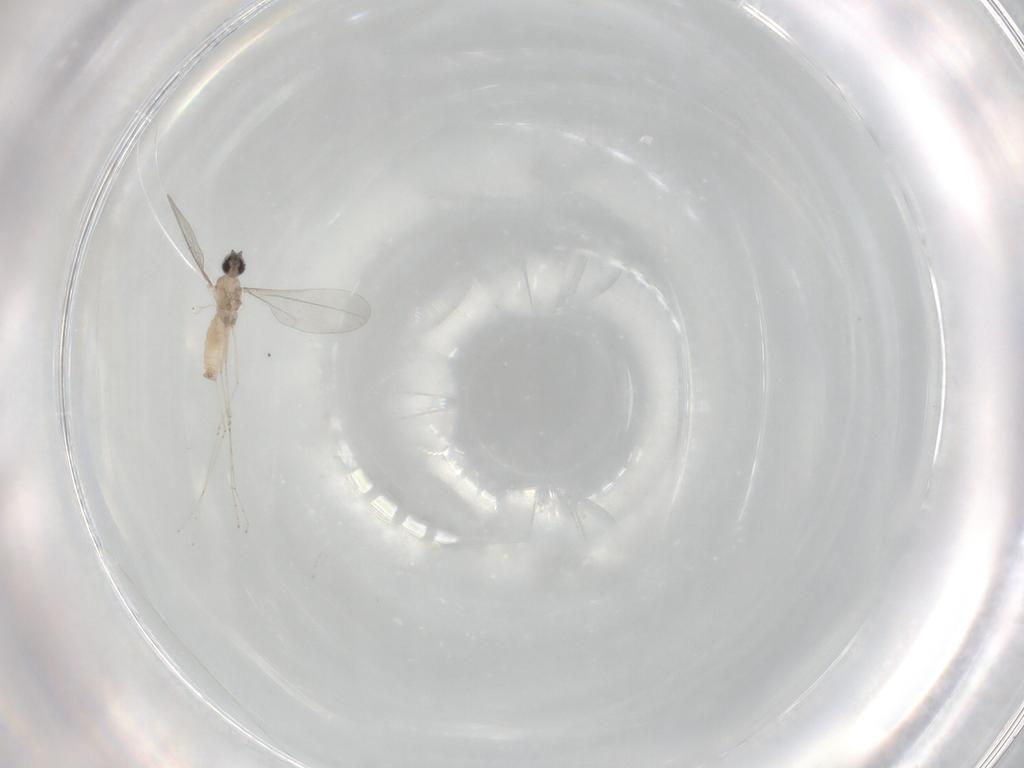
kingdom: Animalia
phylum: Arthropoda
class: Insecta
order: Diptera
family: Cecidomyiidae
